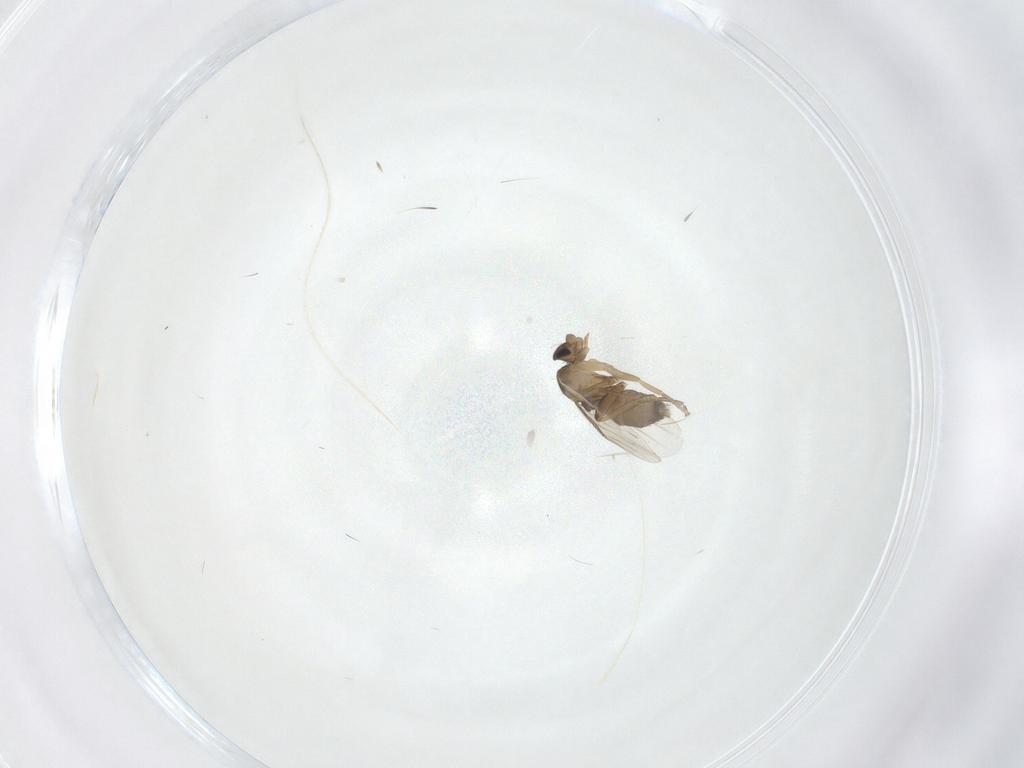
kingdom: Animalia
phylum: Arthropoda
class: Insecta
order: Diptera
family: Phoridae
